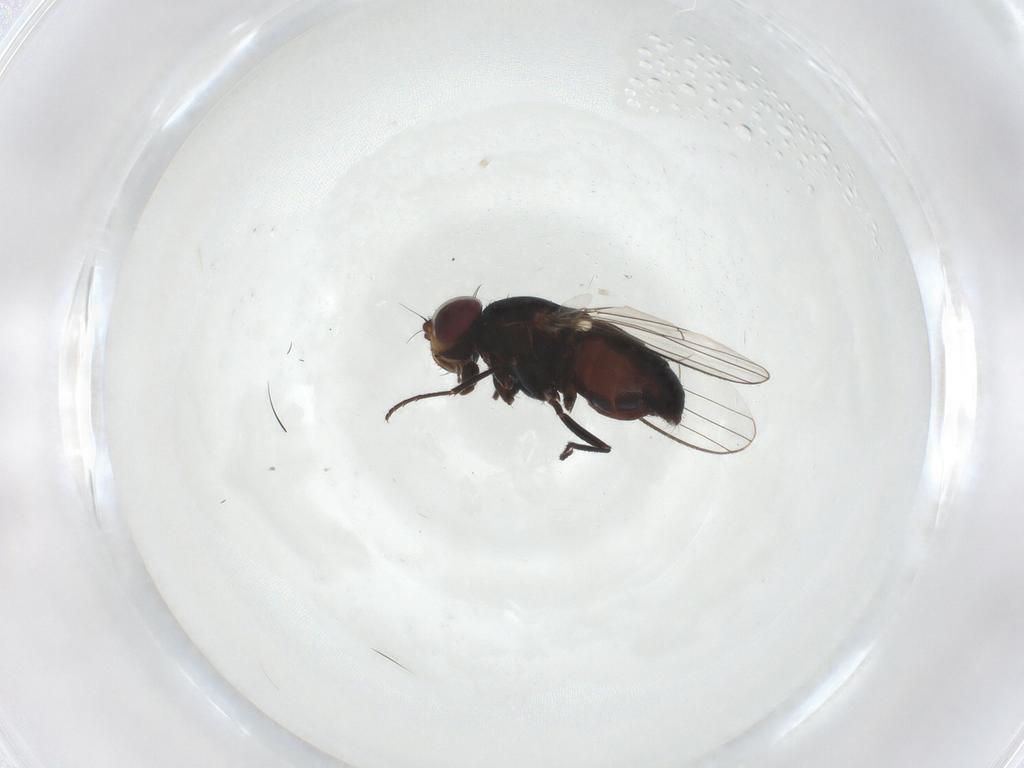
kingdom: Animalia
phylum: Arthropoda
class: Insecta
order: Diptera
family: Carnidae
